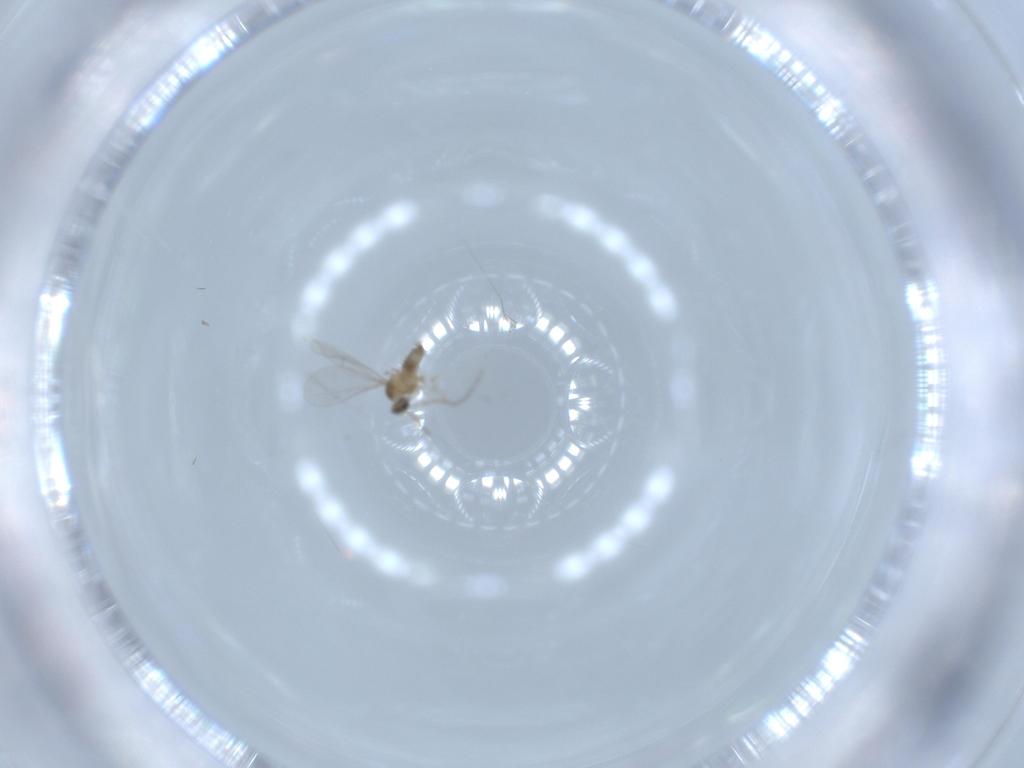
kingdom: Animalia
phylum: Arthropoda
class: Insecta
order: Diptera
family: Cecidomyiidae
